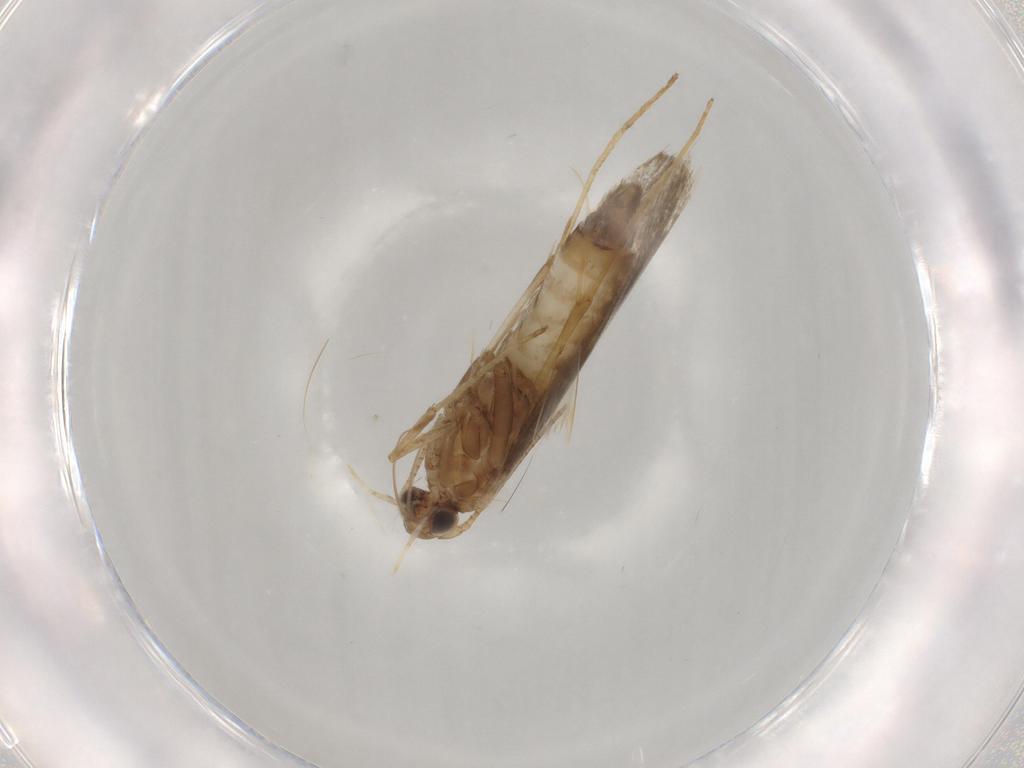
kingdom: Animalia
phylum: Arthropoda
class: Insecta
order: Lepidoptera
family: Gracillariidae
